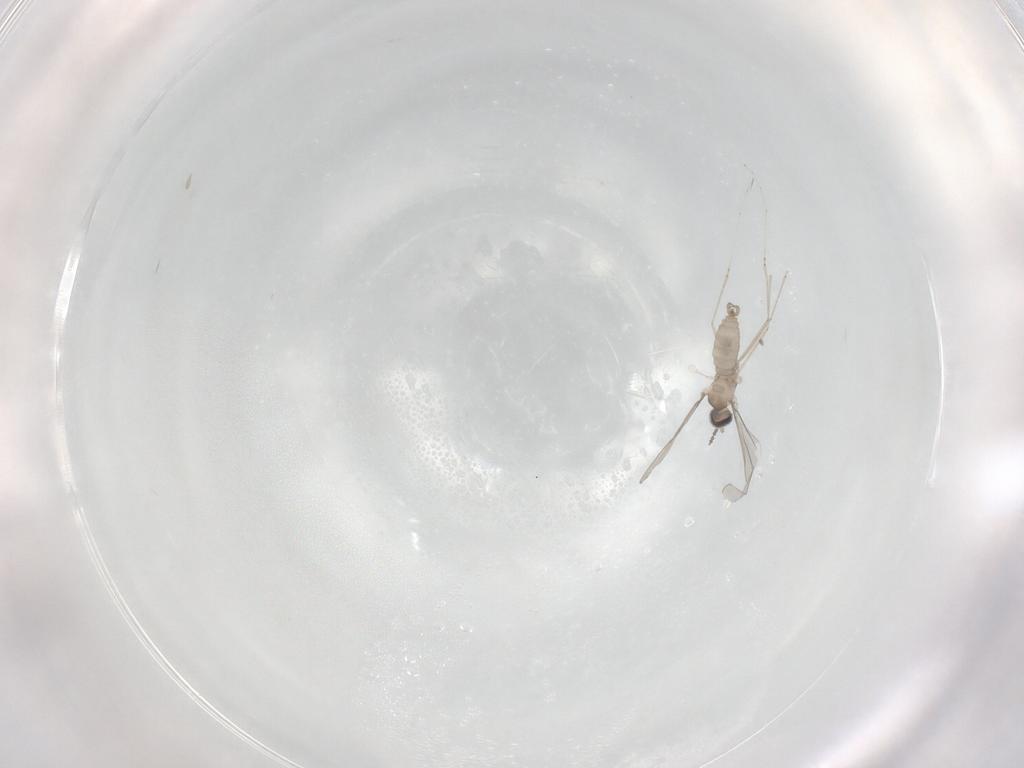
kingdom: Animalia
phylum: Arthropoda
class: Insecta
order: Diptera
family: Cecidomyiidae
